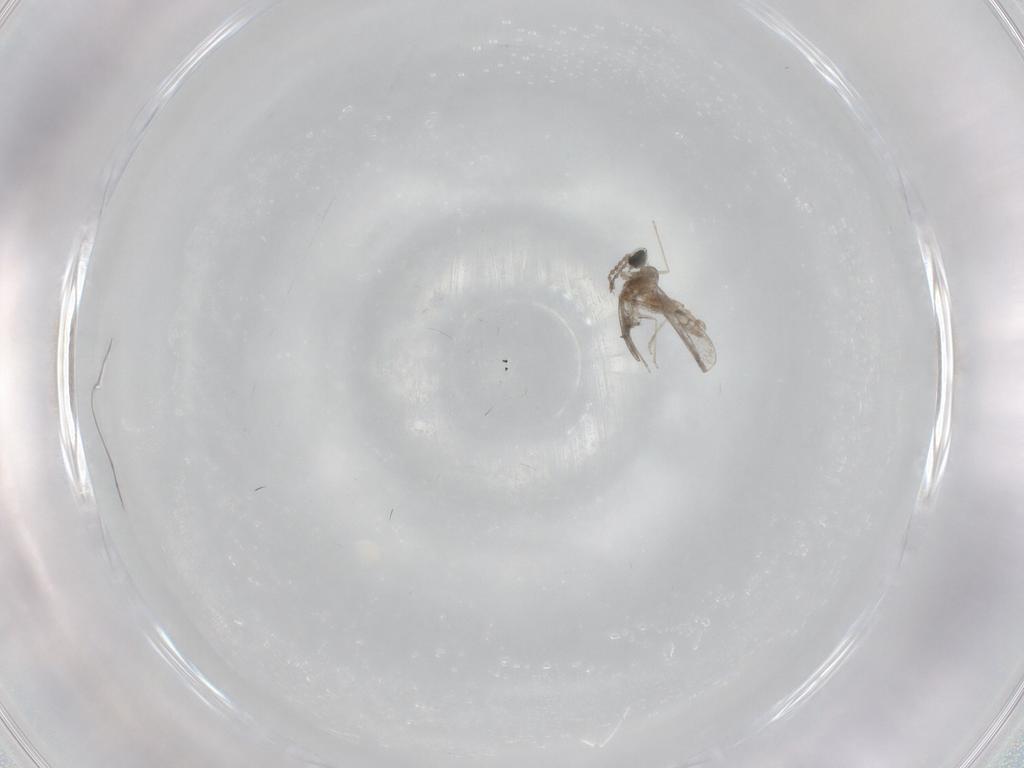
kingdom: Animalia
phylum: Arthropoda
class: Insecta
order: Diptera
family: Cecidomyiidae
